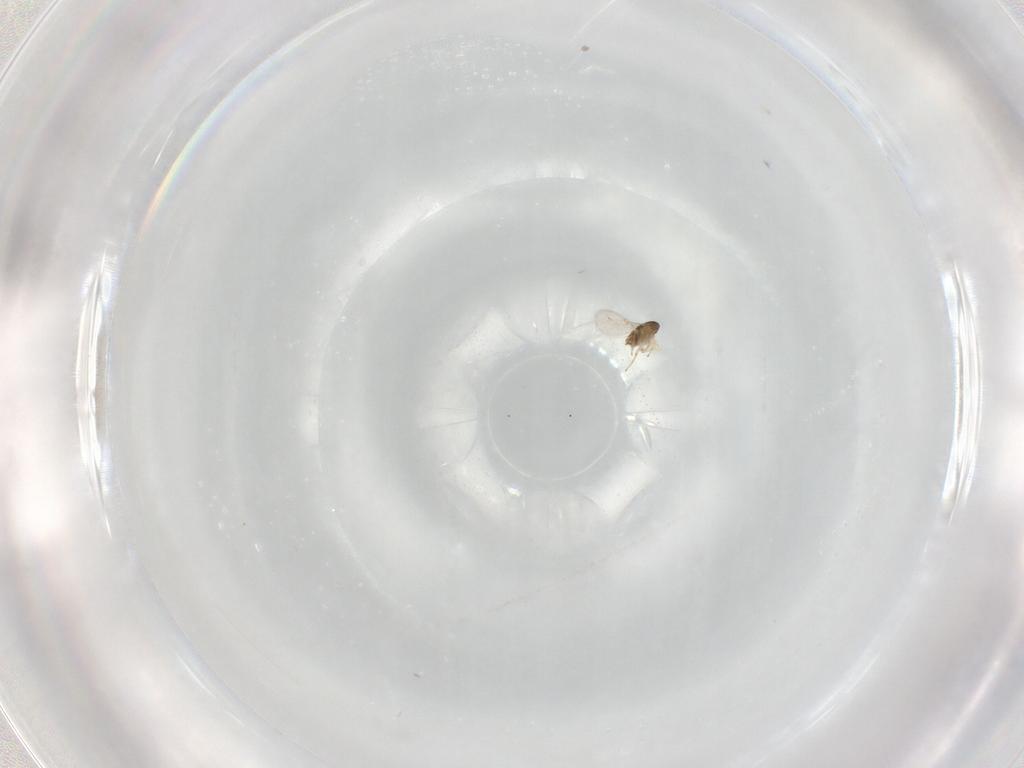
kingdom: Animalia
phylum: Arthropoda
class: Insecta
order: Hymenoptera
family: Encyrtidae
